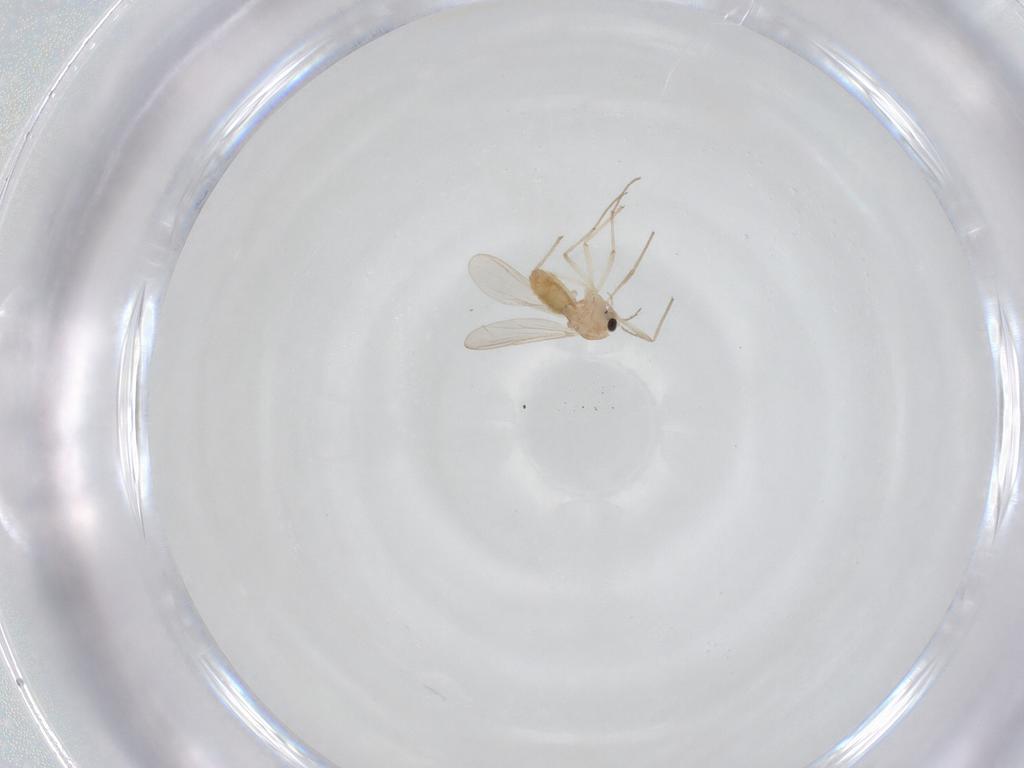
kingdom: Animalia
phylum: Arthropoda
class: Insecta
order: Diptera
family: Chironomidae
